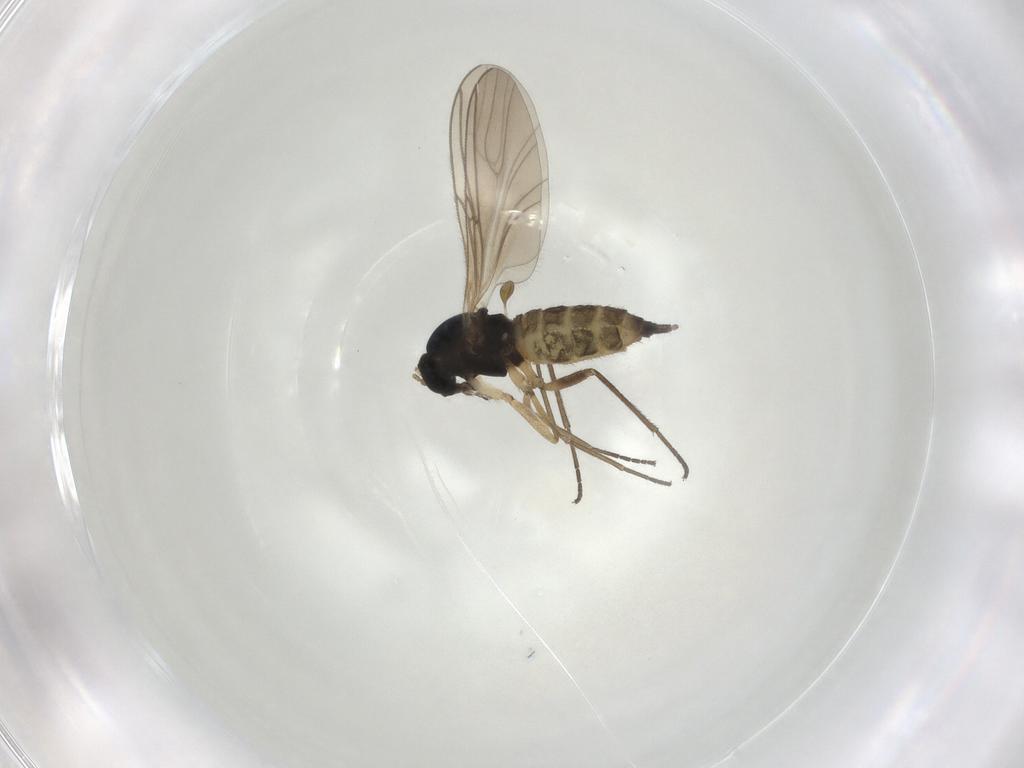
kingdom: Animalia
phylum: Arthropoda
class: Insecta
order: Diptera
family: Sciaridae
